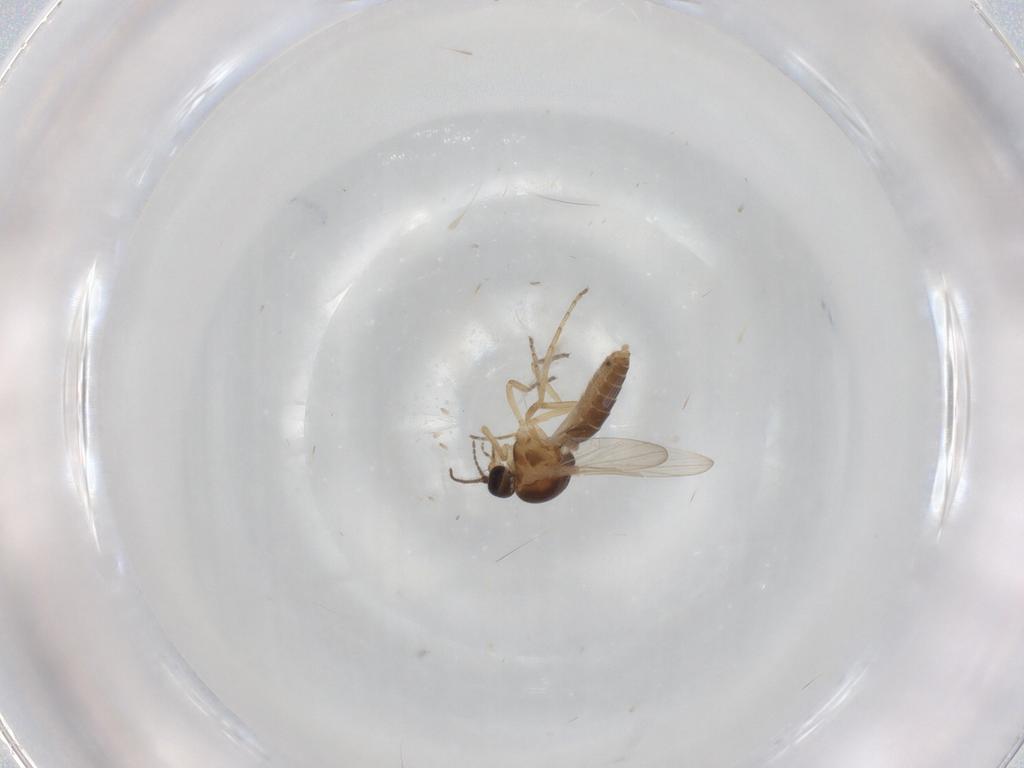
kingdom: Animalia
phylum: Arthropoda
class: Insecta
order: Diptera
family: Ceratopogonidae
